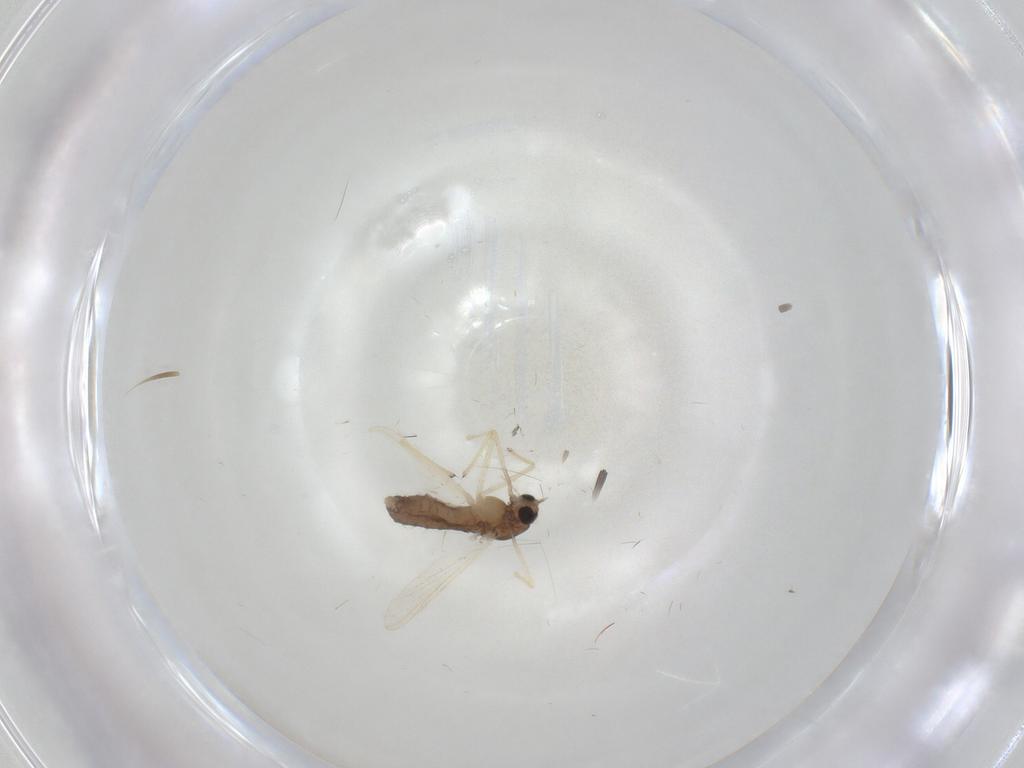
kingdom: Animalia
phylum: Arthropoda
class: Insecta
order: Diptera
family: Chironomidae
